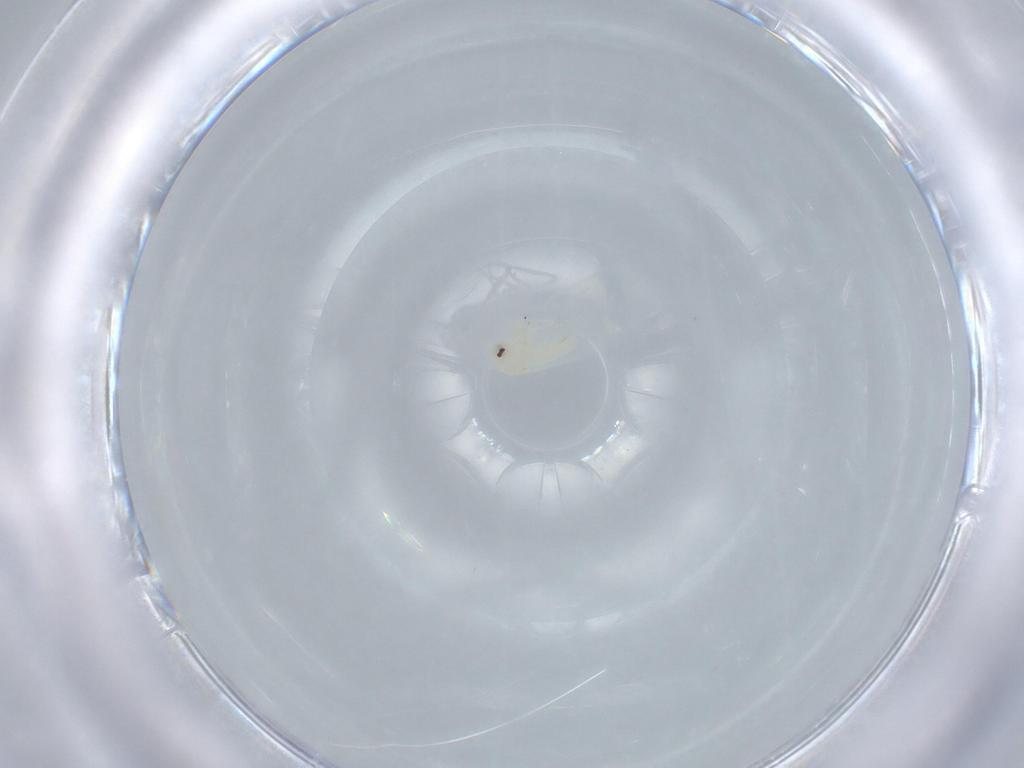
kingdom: Animalia
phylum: Arthropoda
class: Insecta
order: Hemiptera
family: Aleyrodidae
